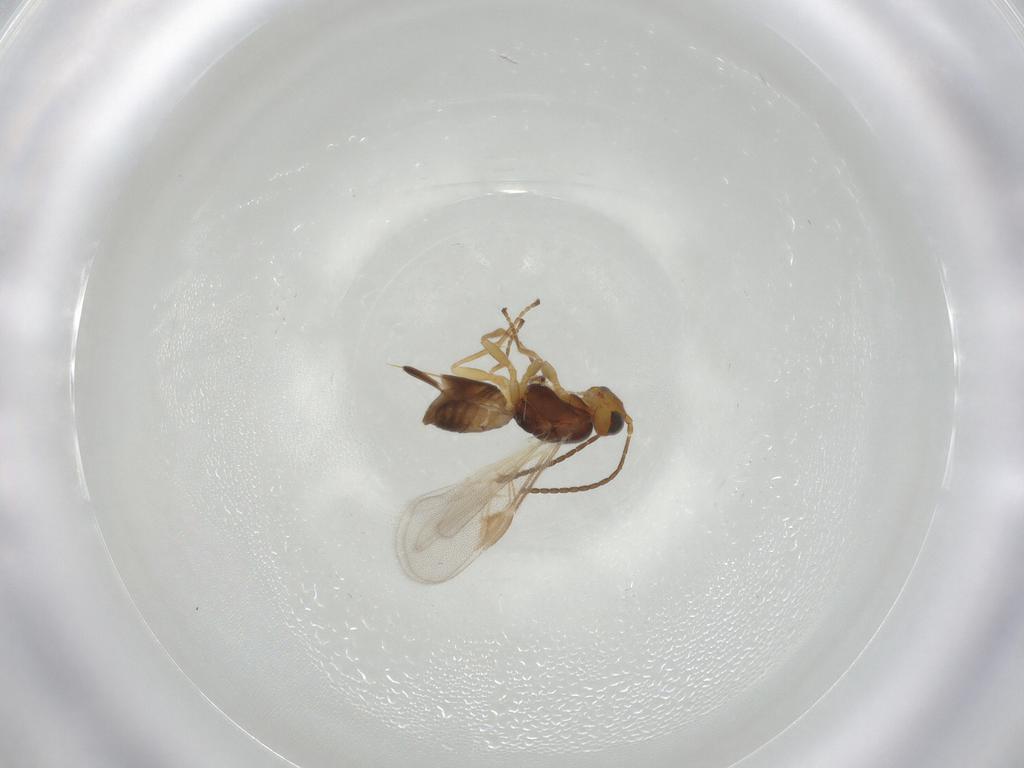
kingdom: Animalia
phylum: Arthropoda
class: Insecta
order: Hymenoptera
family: Braconidae
